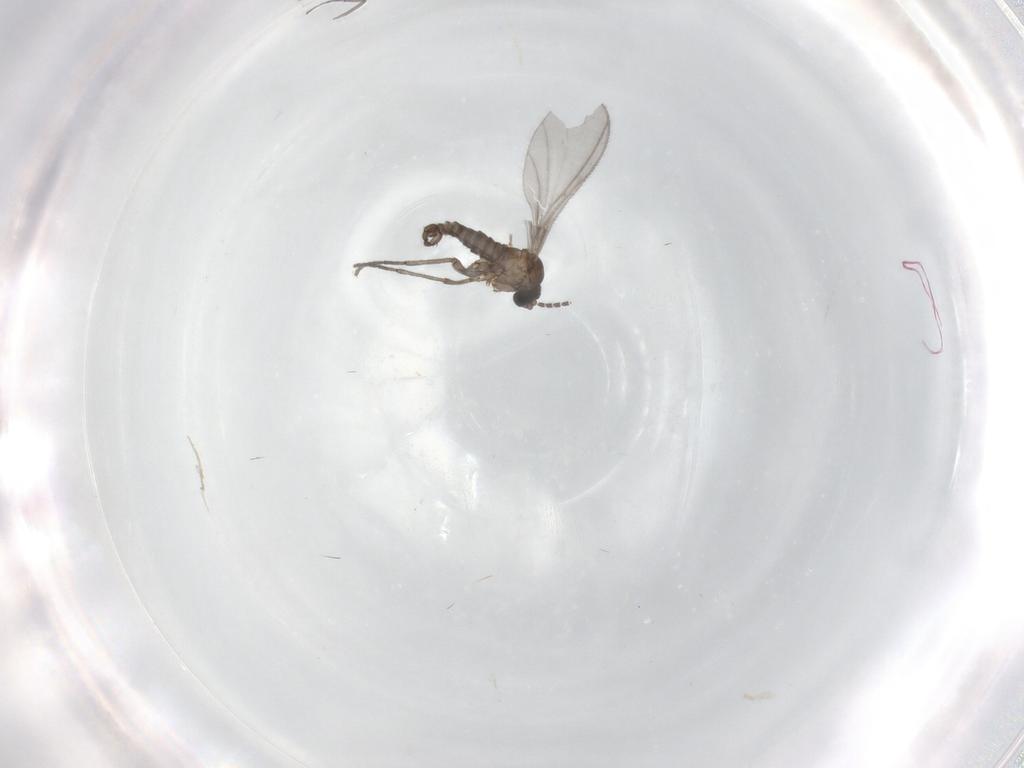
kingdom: Animalia
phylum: Arthropoda
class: Insecta
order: Diptera
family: Sciaridae
